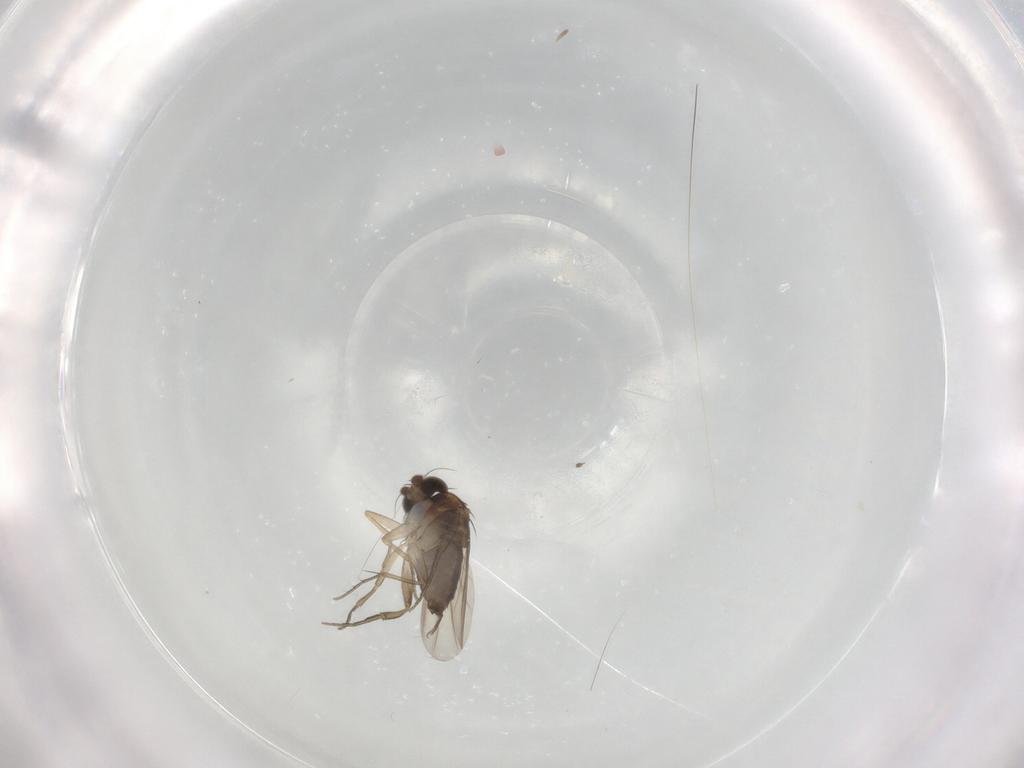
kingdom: Animalia
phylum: Arthropoda
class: Insecta
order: Diptera
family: Phoridae
